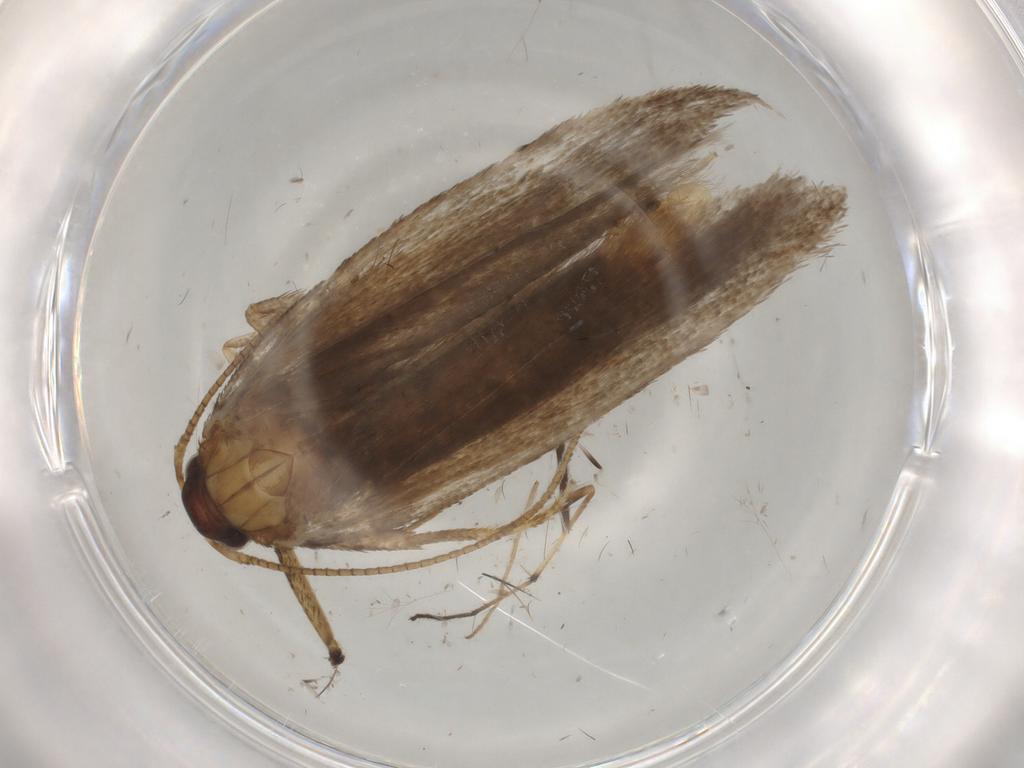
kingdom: Animalia
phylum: Arthropoda
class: Insecta
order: Lepidoptera
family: Gelechiidae
